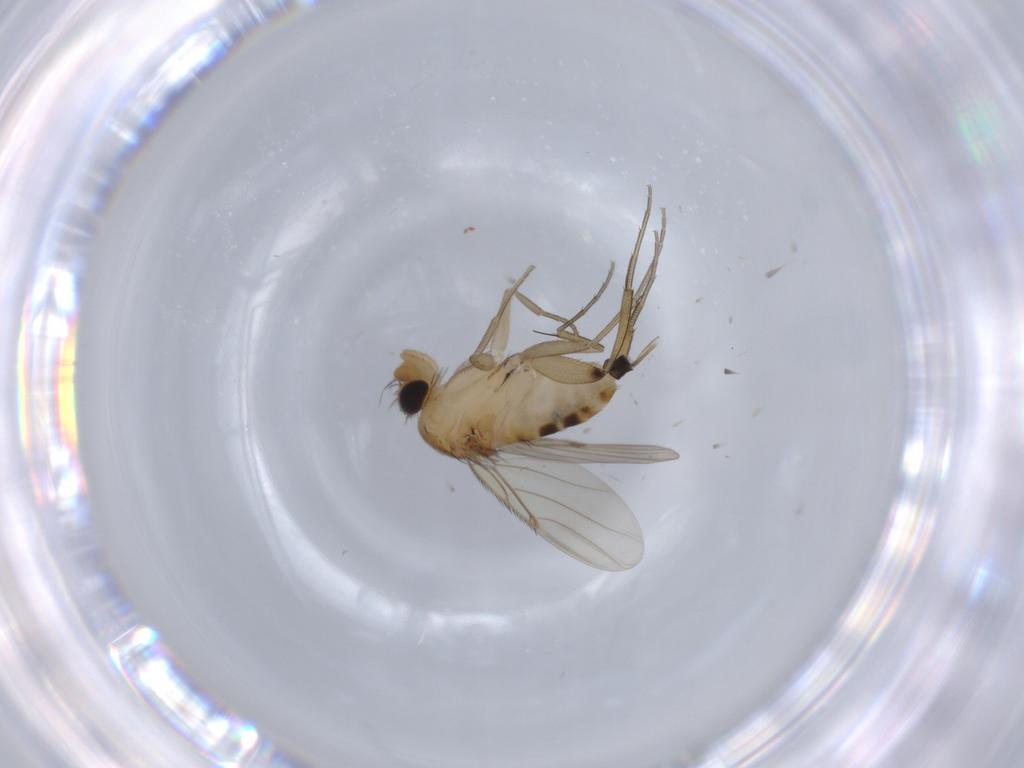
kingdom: Animalia
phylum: Arthropoda
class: Insecta
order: Diptera
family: Phoridae
